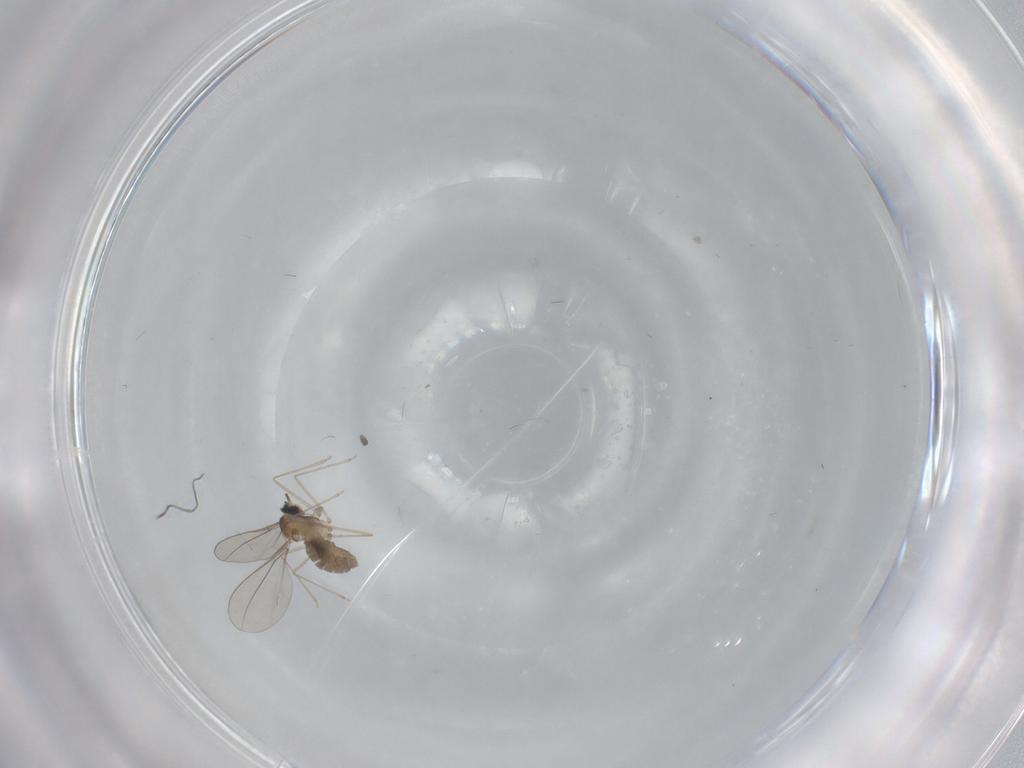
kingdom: Animalia
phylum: Arthropoda
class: Insecta
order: Diptera
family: Cecidomyiidae
